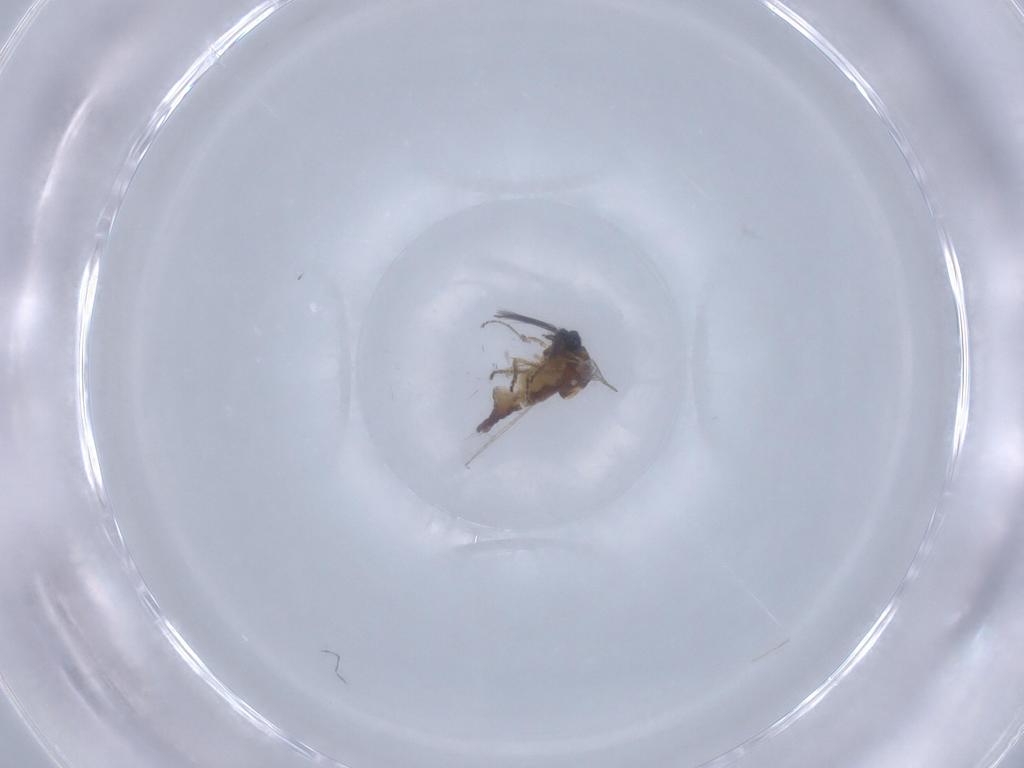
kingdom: Animalia
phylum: Arthropoda
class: Insecta
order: Diptera
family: Ceratopogonidae
